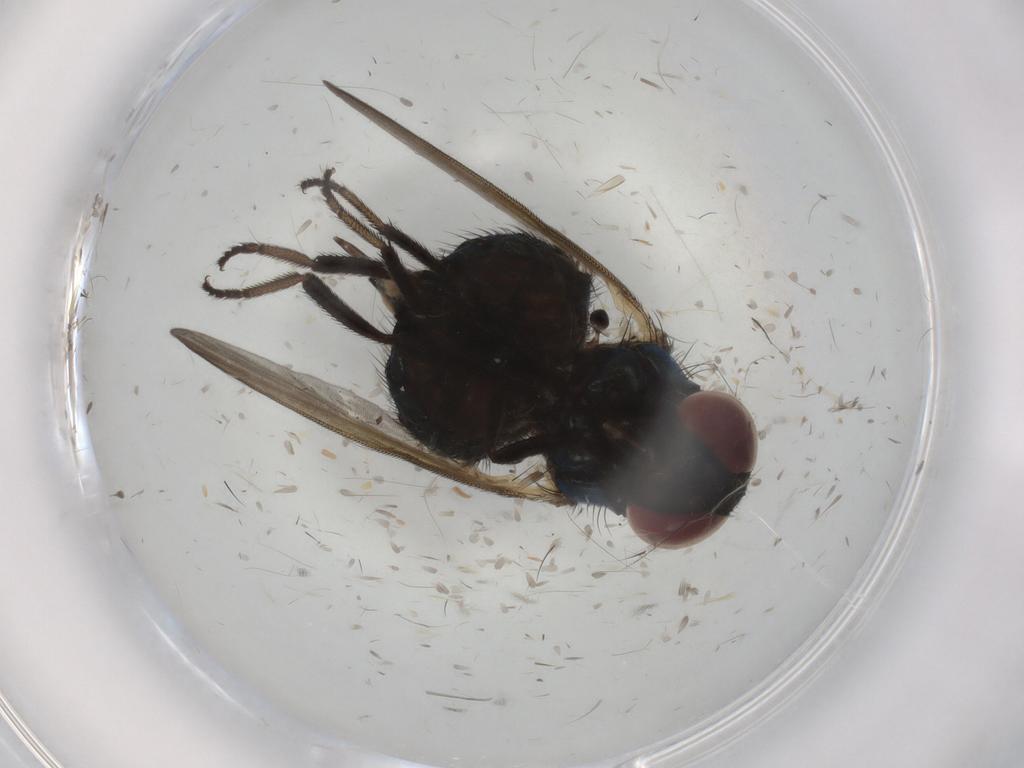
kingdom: Animalia
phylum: Arthropoda
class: Insecta
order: Diptera
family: Lonchaeidae
